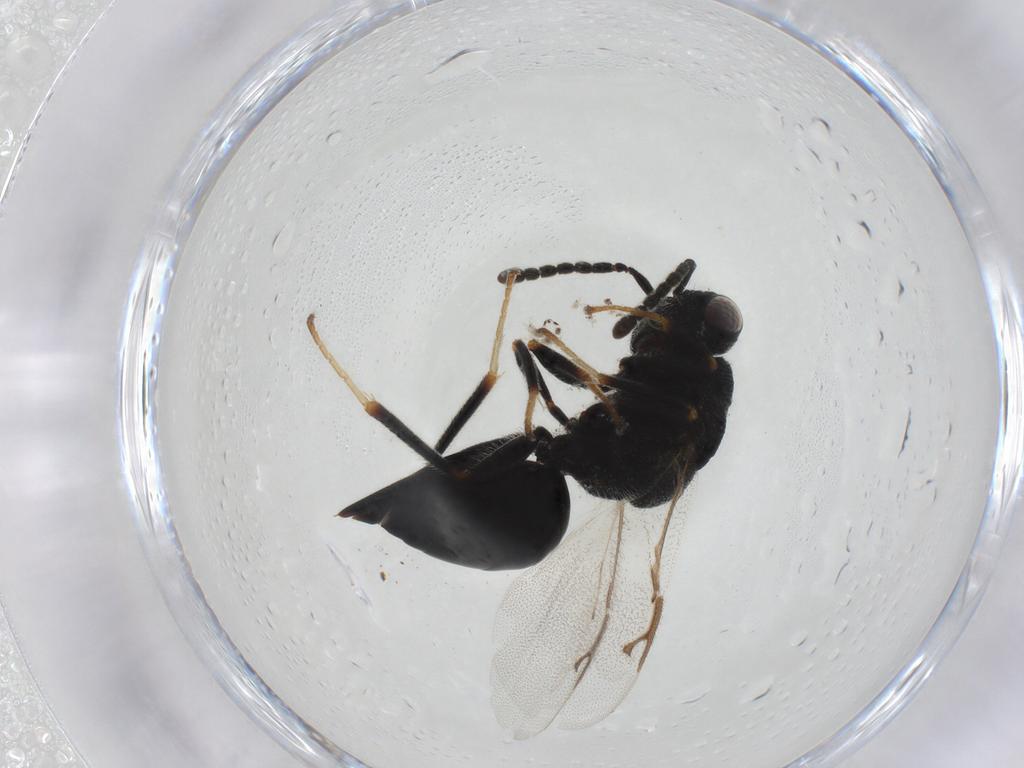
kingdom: Animalia
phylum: Arthropoda
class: Insecta
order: Hymenoptera
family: Eurytomidae
